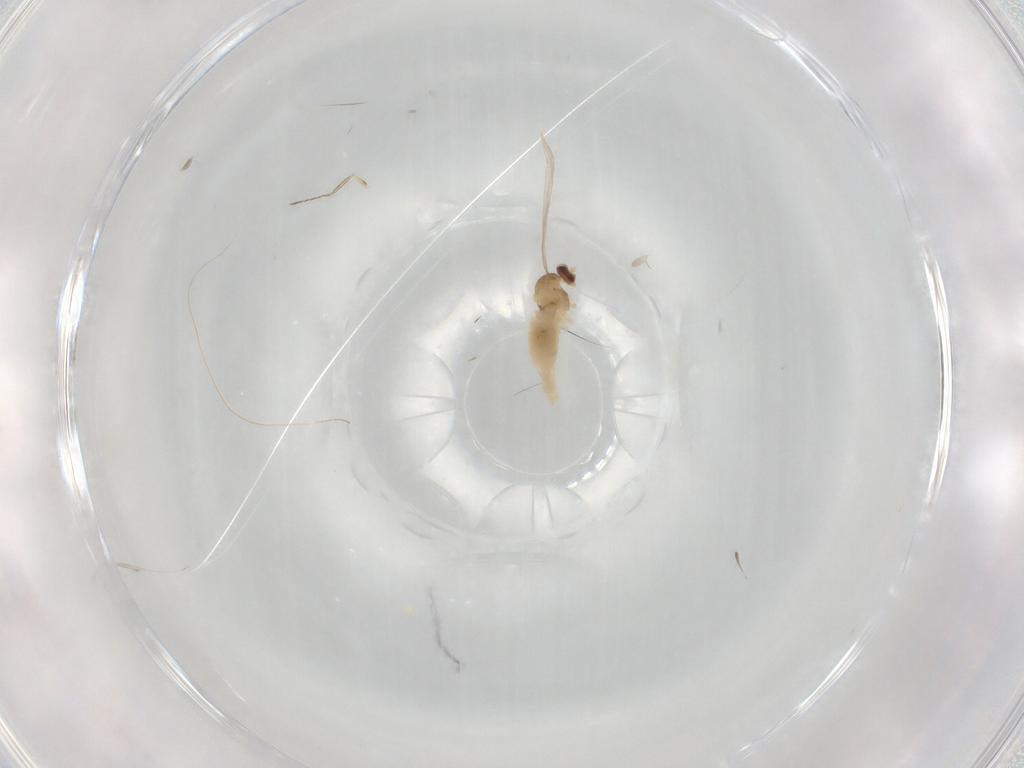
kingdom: Animalia
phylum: Arthropoda
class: Insecta
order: Diptera
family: Cecidomyiidae
